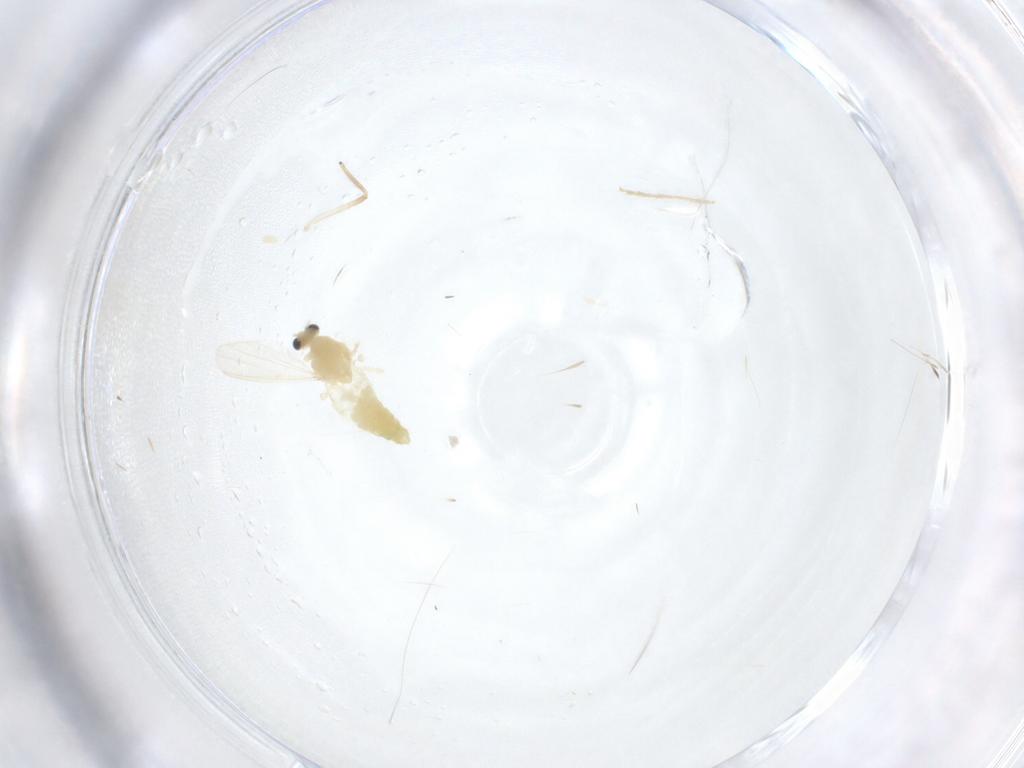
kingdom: Animalia
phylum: Arthropoda
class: Insecta
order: Diptera
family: Chironomidae
